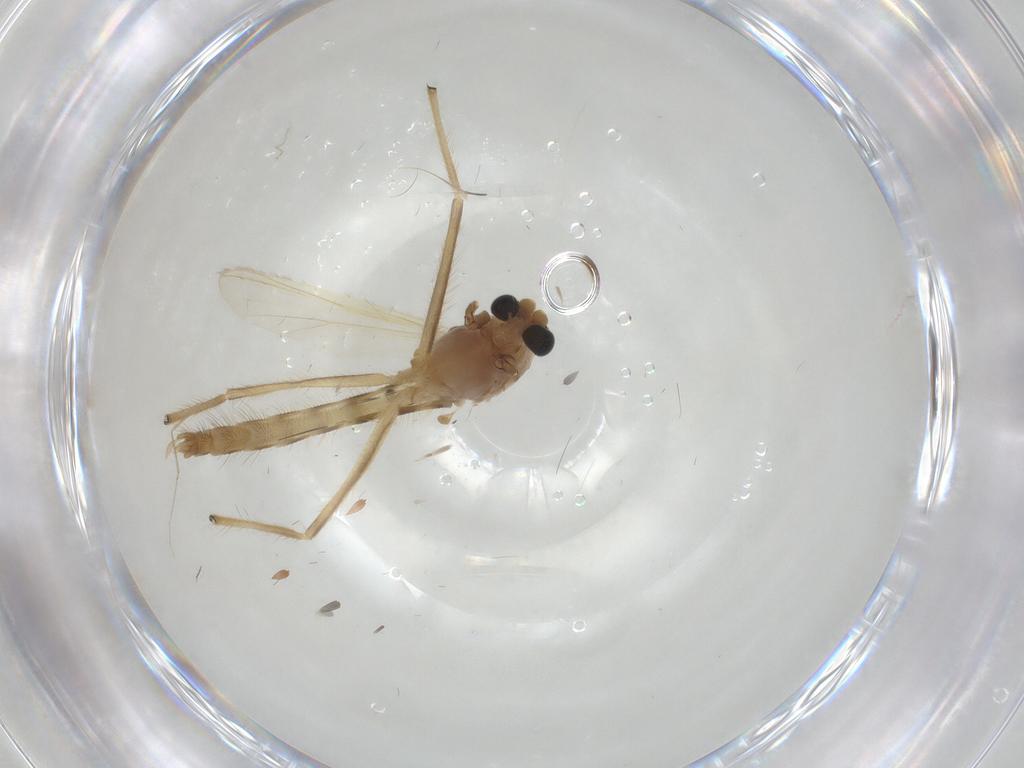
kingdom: Animalia
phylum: Arthropoda
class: Insecta
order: Diptera
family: Chironomidae
